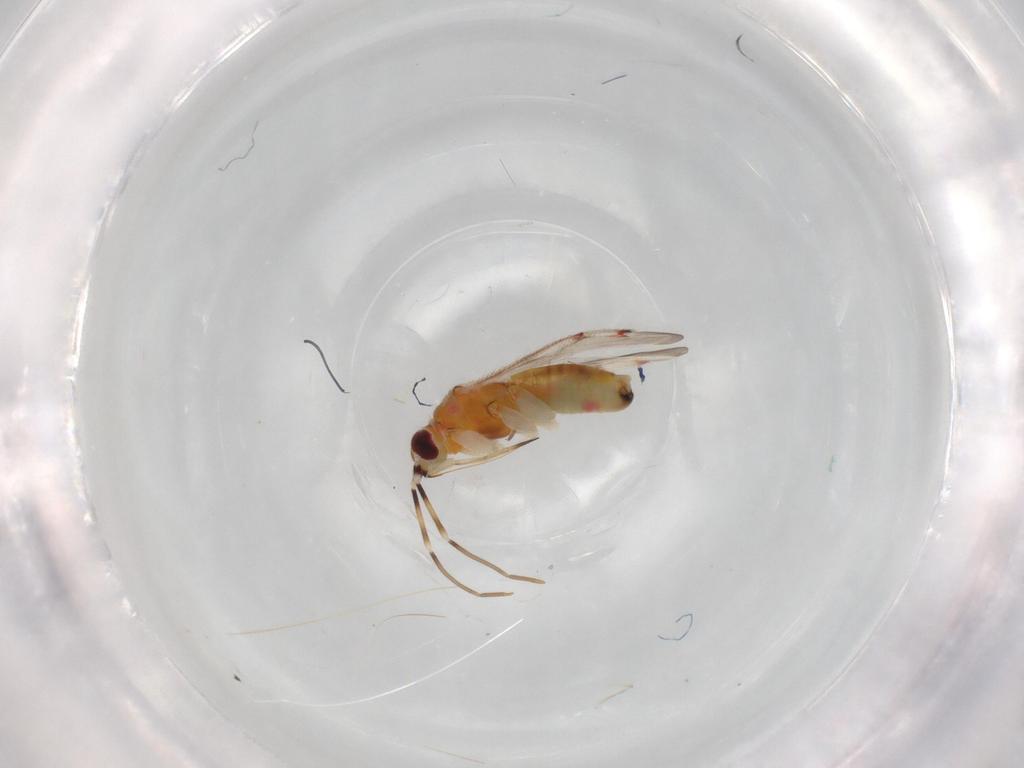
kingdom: Animalia
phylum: Arthropoda
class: Insecta
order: Hemiptera
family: Miridae
